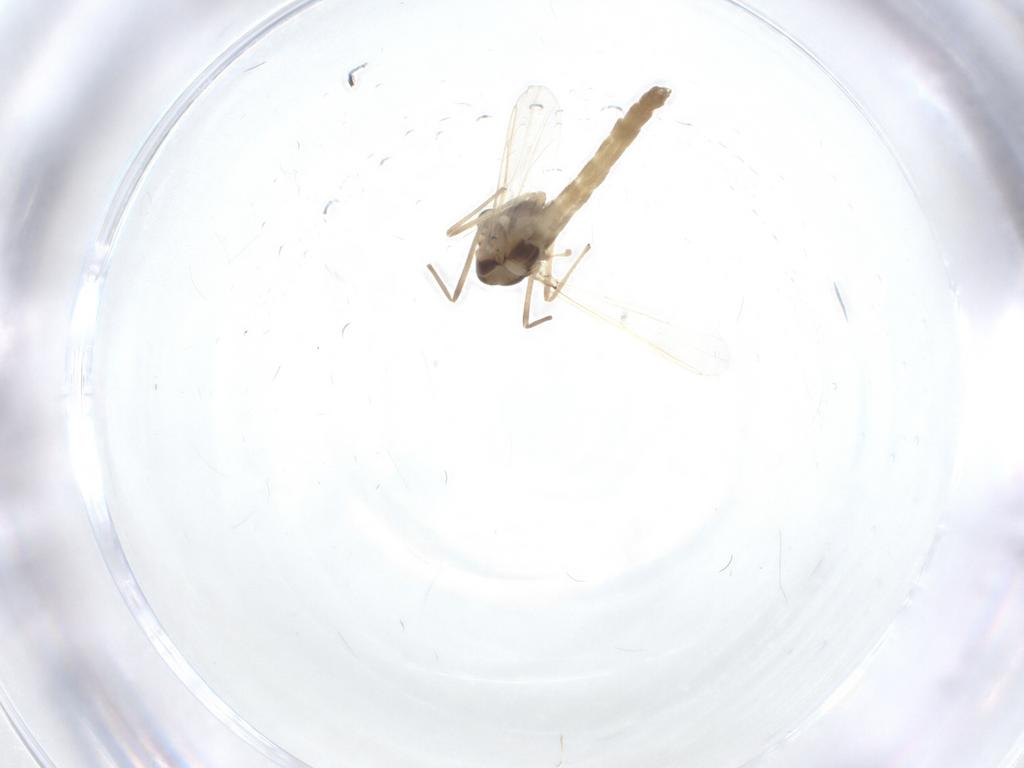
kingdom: Animalia
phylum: Arthropoda
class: Insecta
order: Diptera
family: Chironomidae
